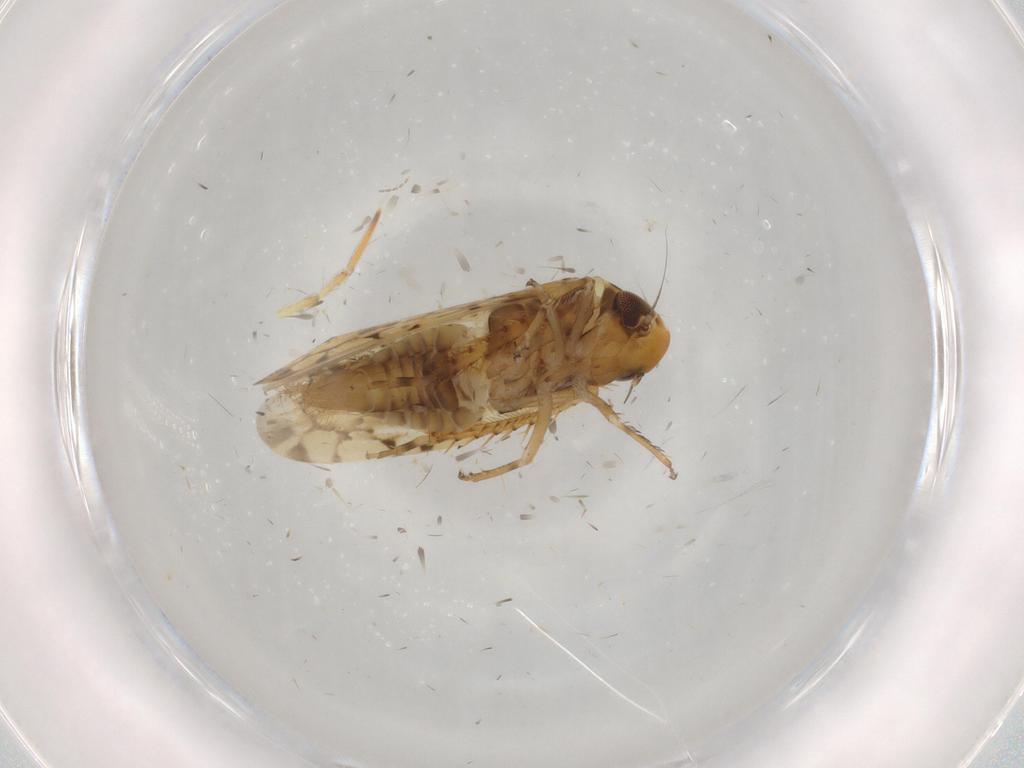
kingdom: Animalia
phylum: Arthropoda
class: Insecta
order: Hemiptera
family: Cicadellidae
